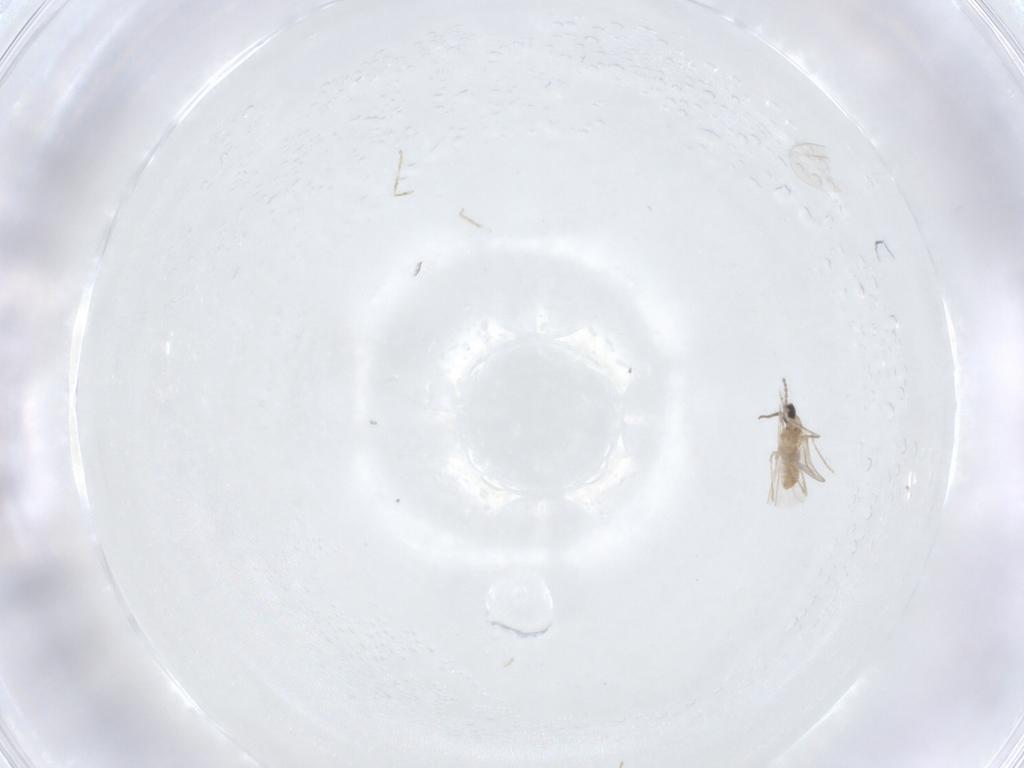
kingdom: Animalia
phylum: Arthropoda
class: Insecta
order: Diptera
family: Cecidomyiidae
